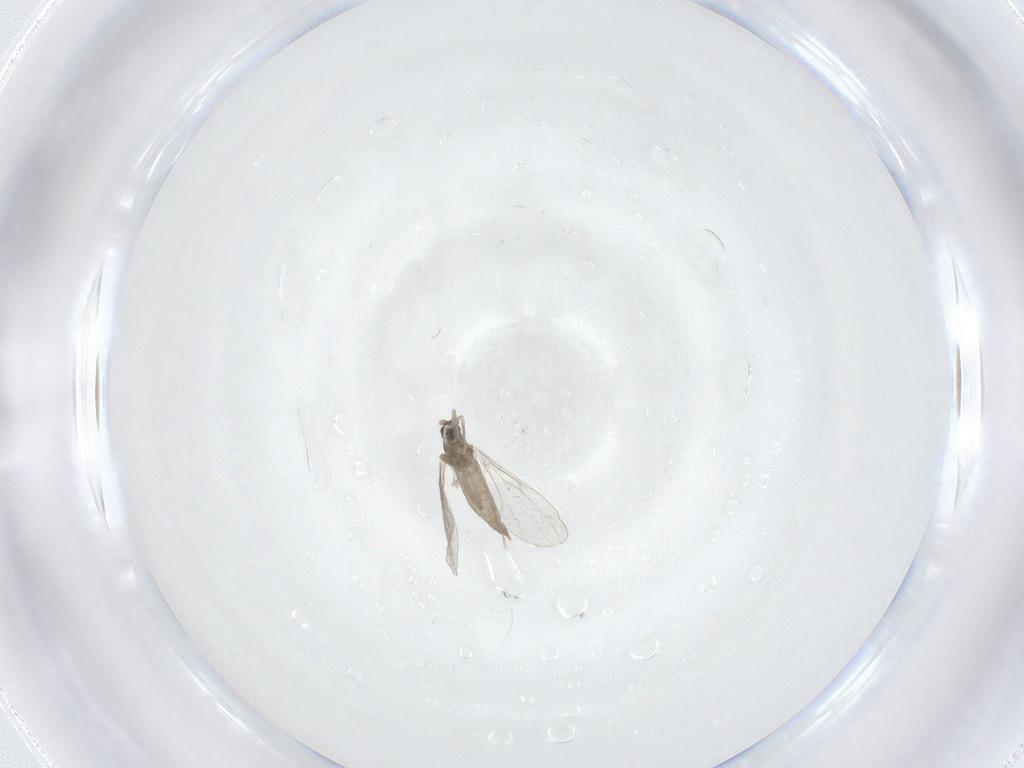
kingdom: Animalia
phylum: Arthropoda
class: Insecta
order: Diptera
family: Cecidomyiidae
